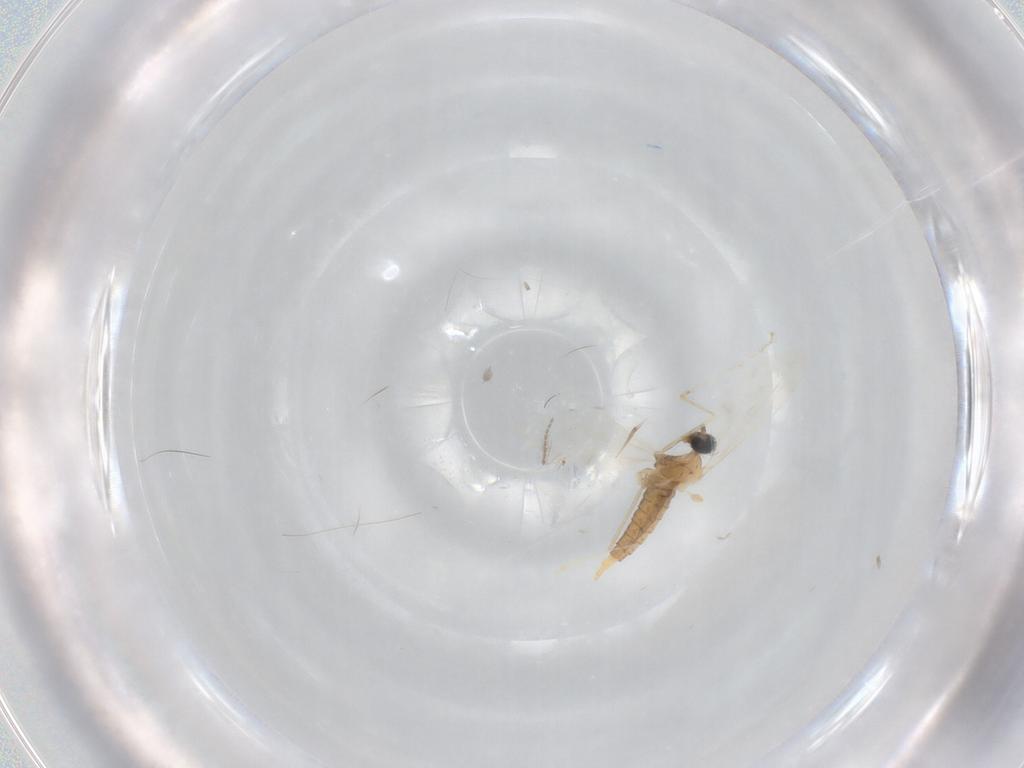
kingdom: Animalia
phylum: Arthropoda
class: Insecta
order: Diptera
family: Cecidomyiidae
